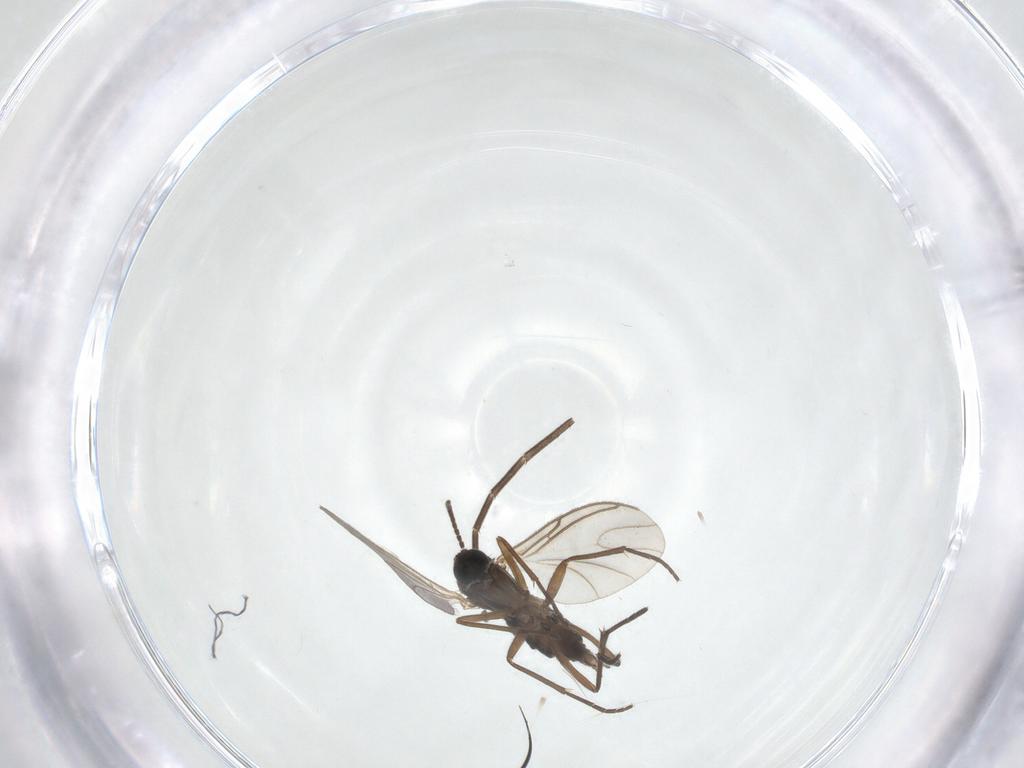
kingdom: Animalia
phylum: Arthropoda
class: Insecta
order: Diptera
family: Sciaridae
